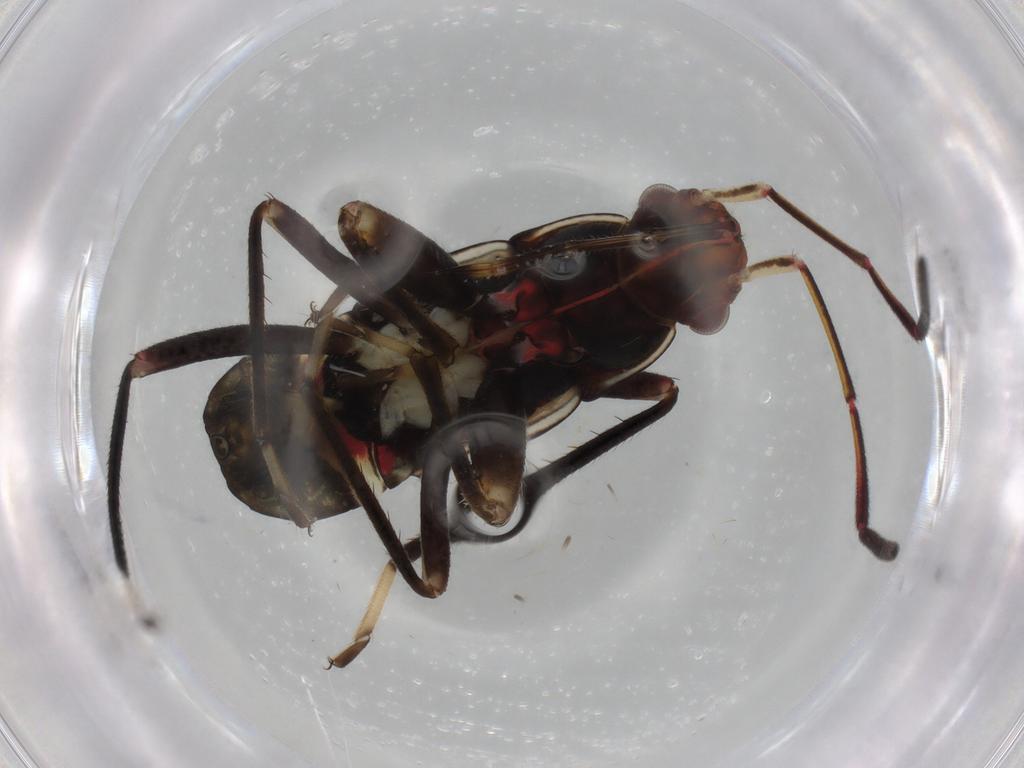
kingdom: Animalia
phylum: Arthropoda
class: Insecta
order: Hemiptera
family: Rhyparochromidae
